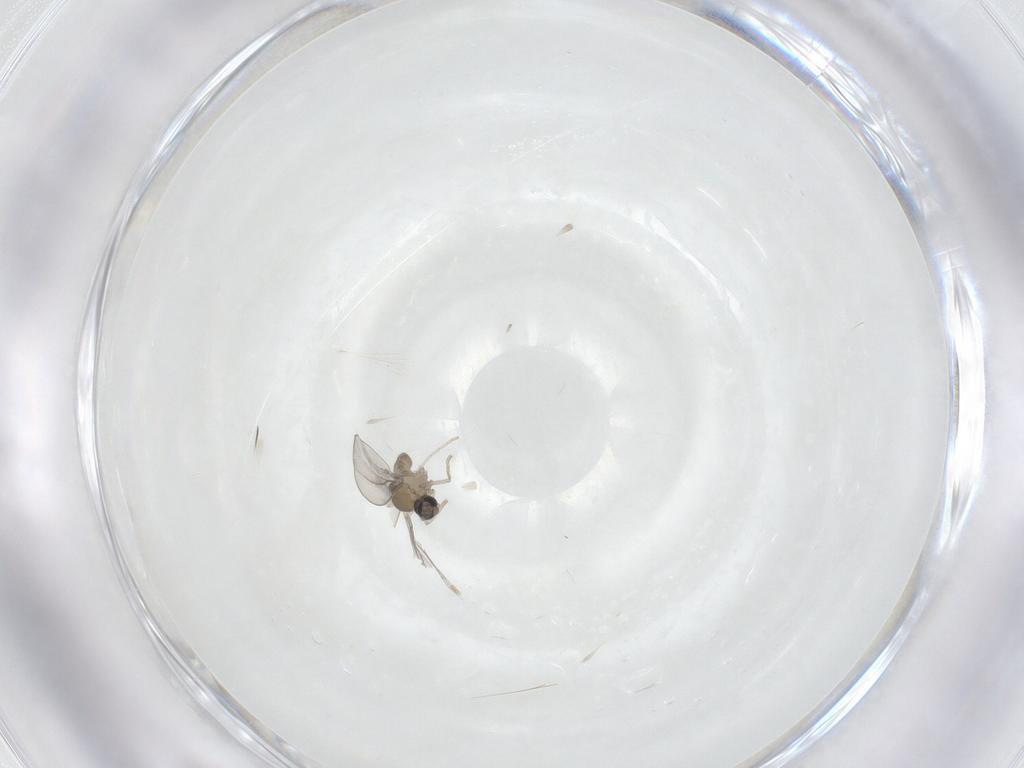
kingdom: Animalia
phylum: Arthropoda
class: Insecta
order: Diptera
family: Cecidomyiidae
